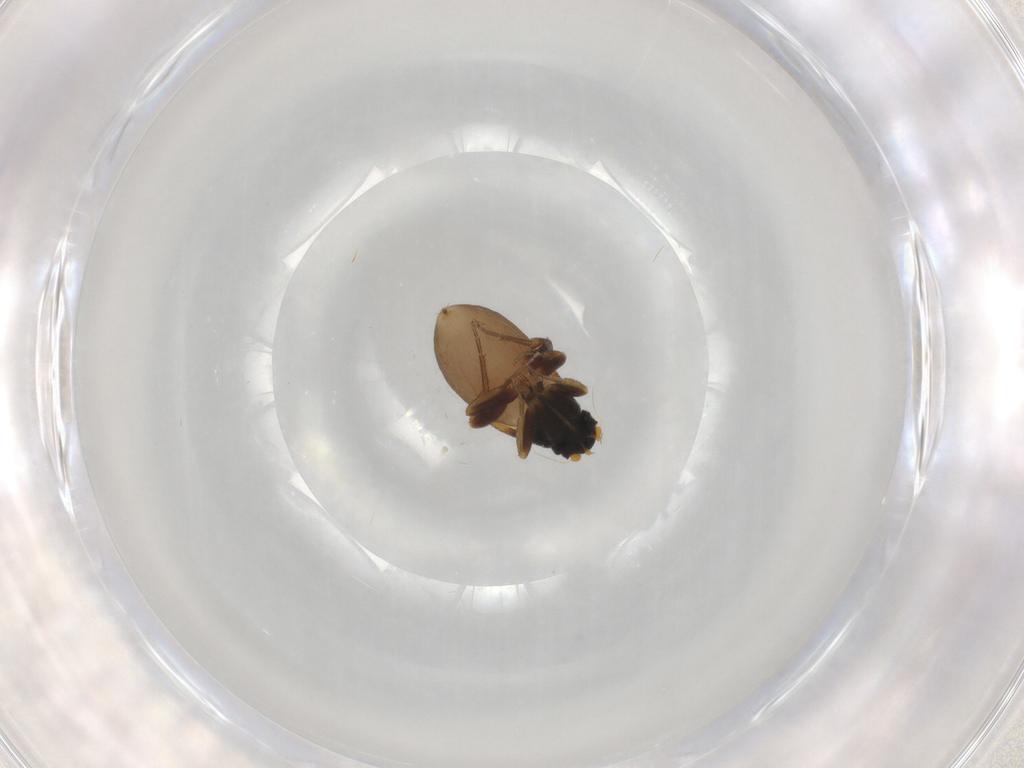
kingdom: Animalia
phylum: Arthropoda
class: Insecta
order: Diptera
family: Phoridae
